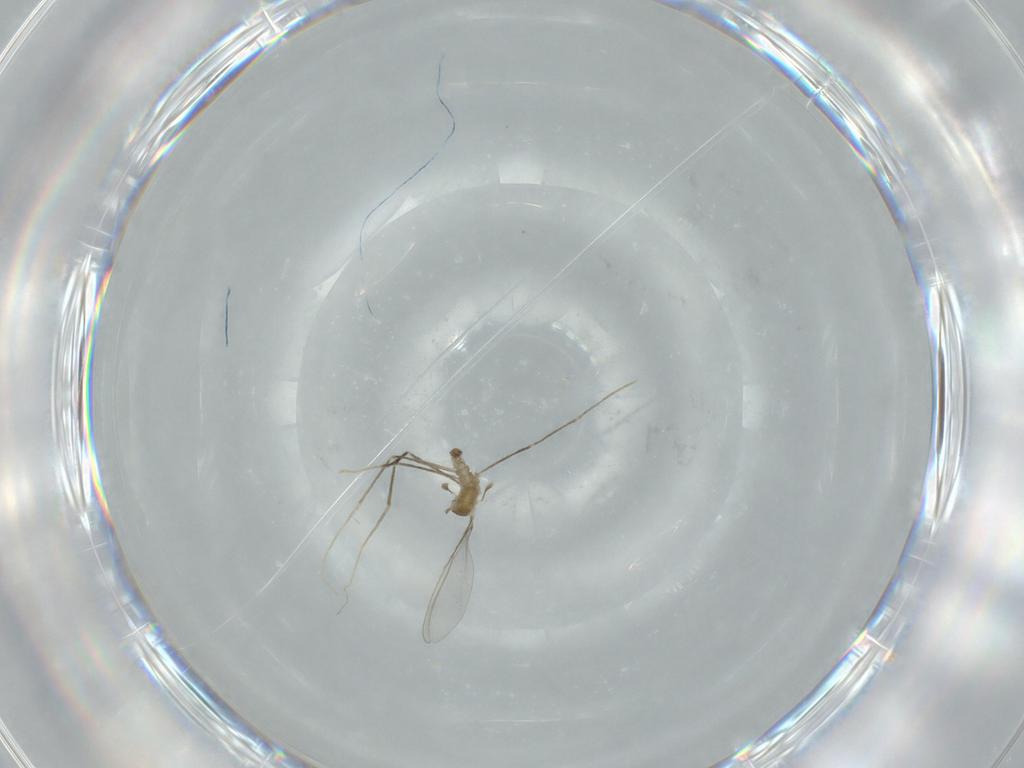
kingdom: Animalia
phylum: Arthropoda
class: Insecta
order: Diptera
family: Cecidomyiidae
